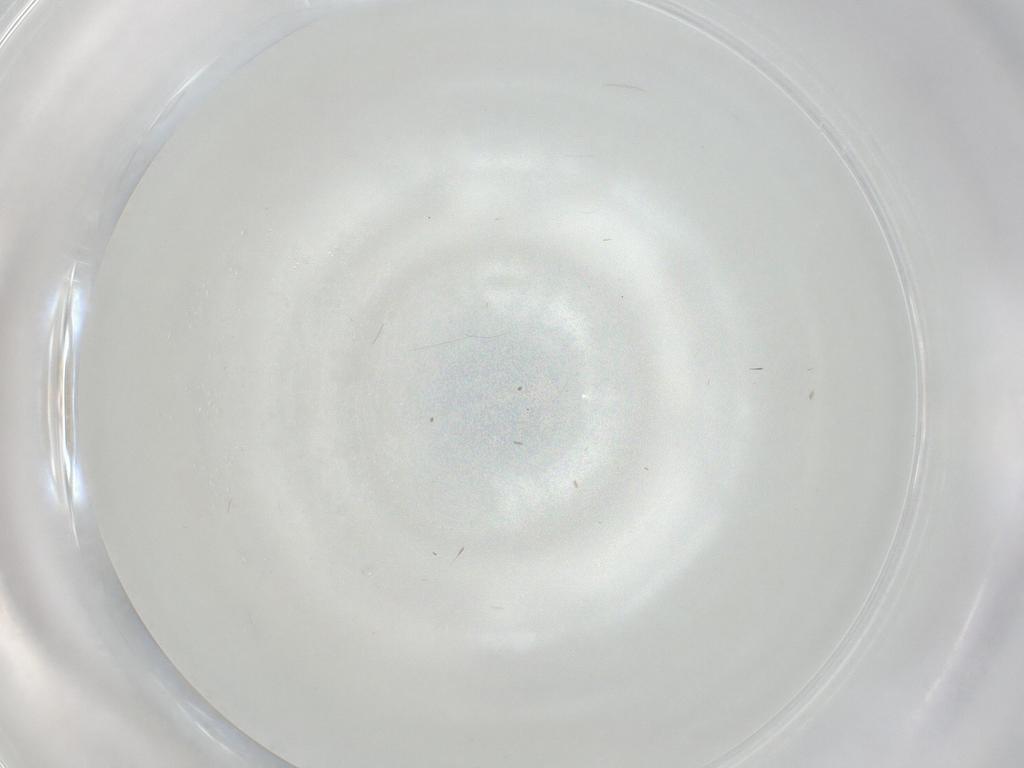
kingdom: Animalia
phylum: Arthropoda
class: Insecta
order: Diptera
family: Chironomidae
